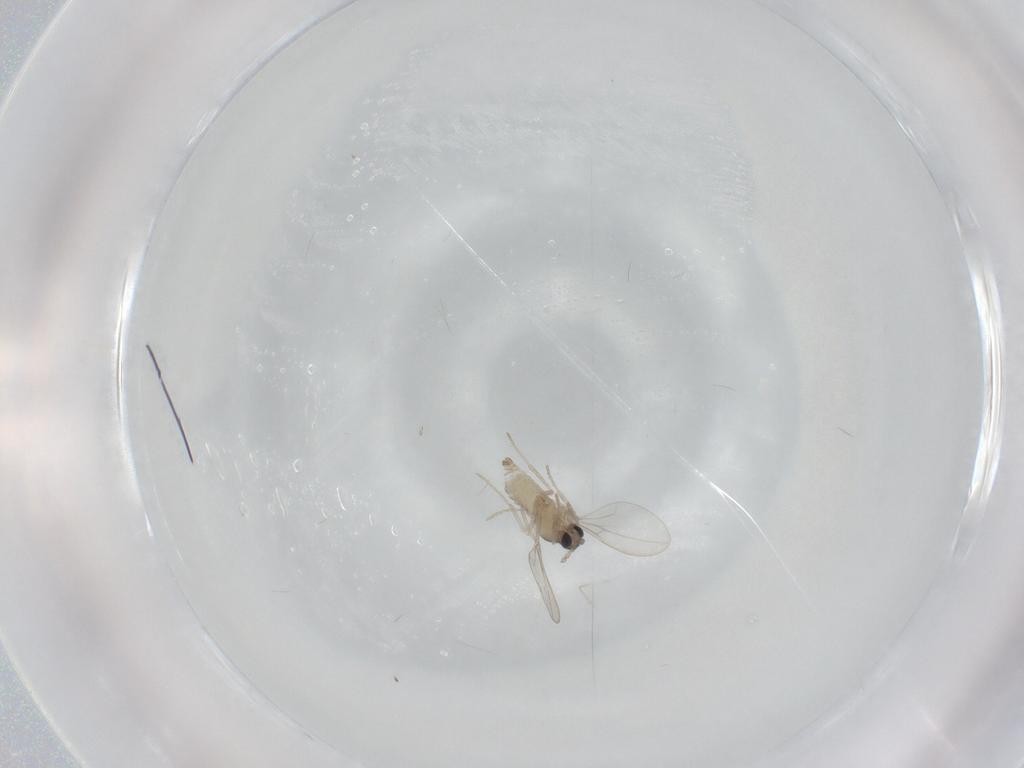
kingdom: Animalia
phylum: Arthropoda
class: Insecta
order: Diptera
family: Cecidomyiidae
